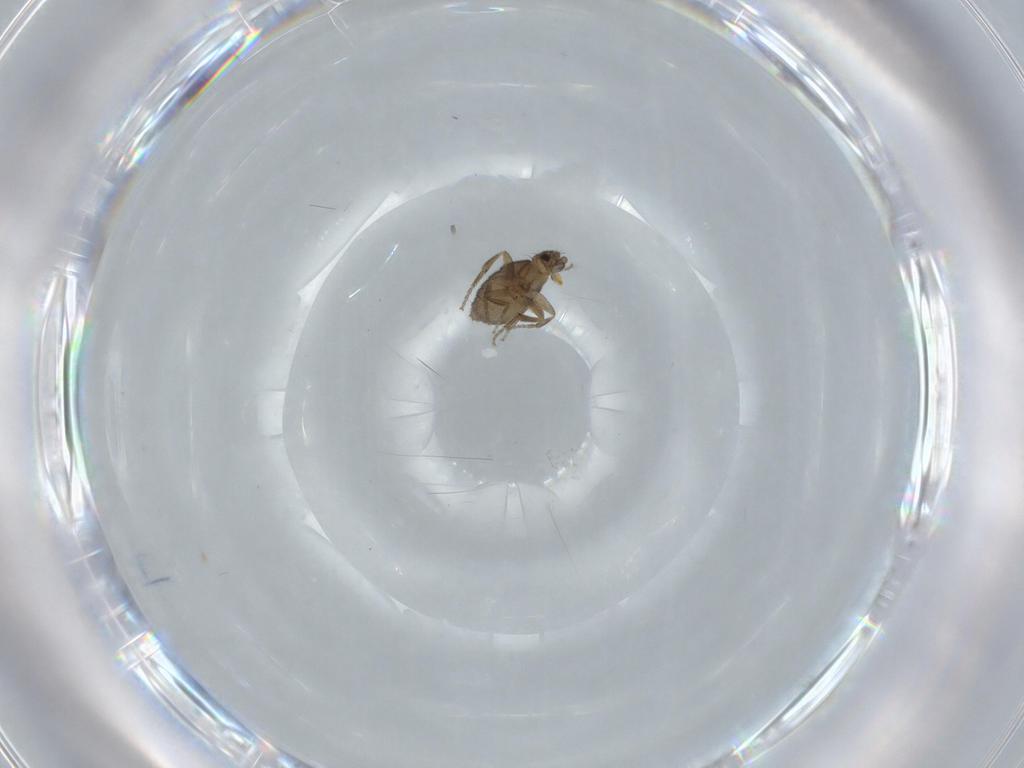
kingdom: Animalia
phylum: Arthropoda
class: Insecta
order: Diptera
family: Phoridae
